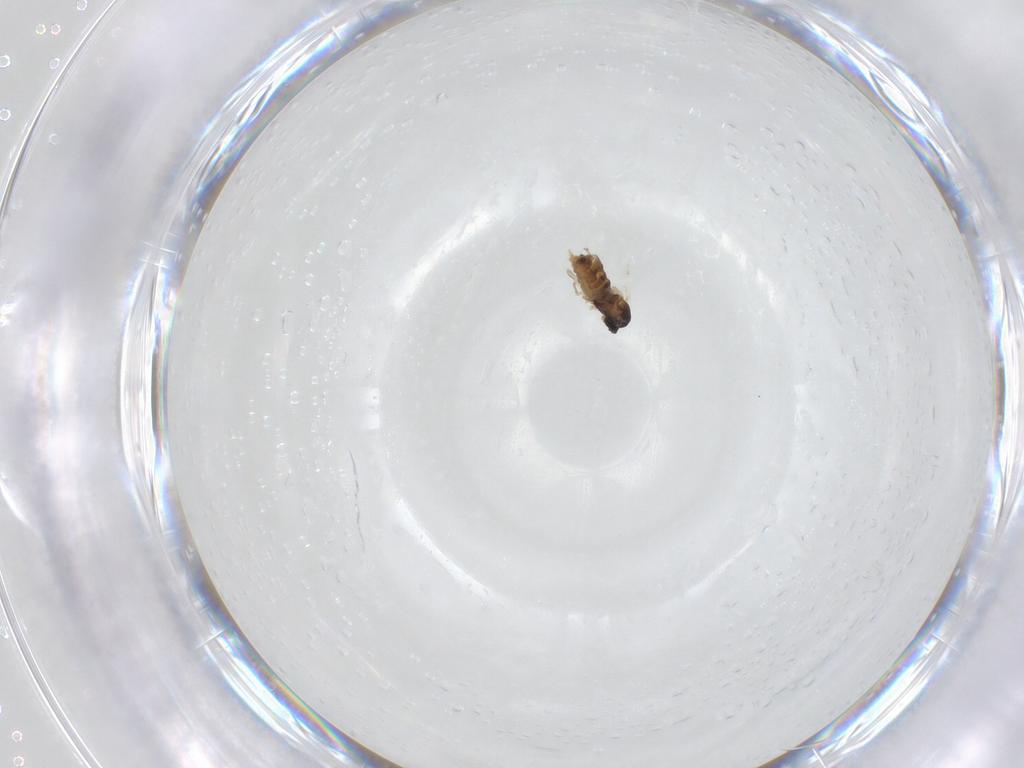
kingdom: Animalia
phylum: Arthropoda
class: Insecta
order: Diptera
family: Cecidomyiidae
